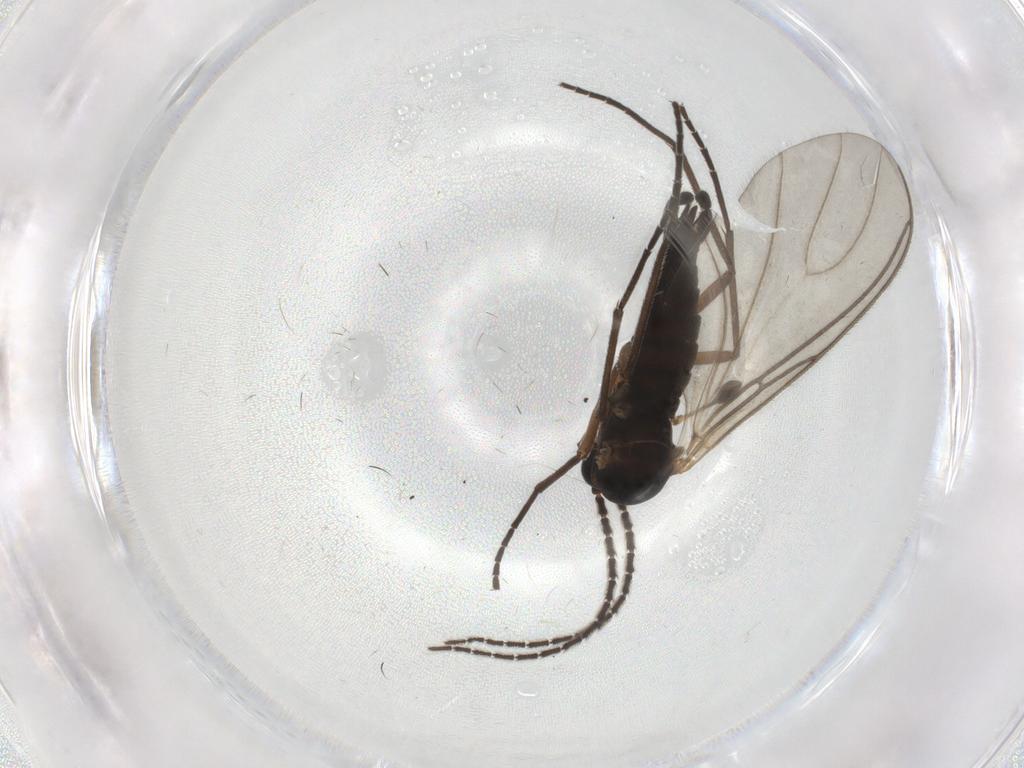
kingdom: Animalia
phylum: Arthropoda
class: Insecta
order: Diptera
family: Sciaridae
